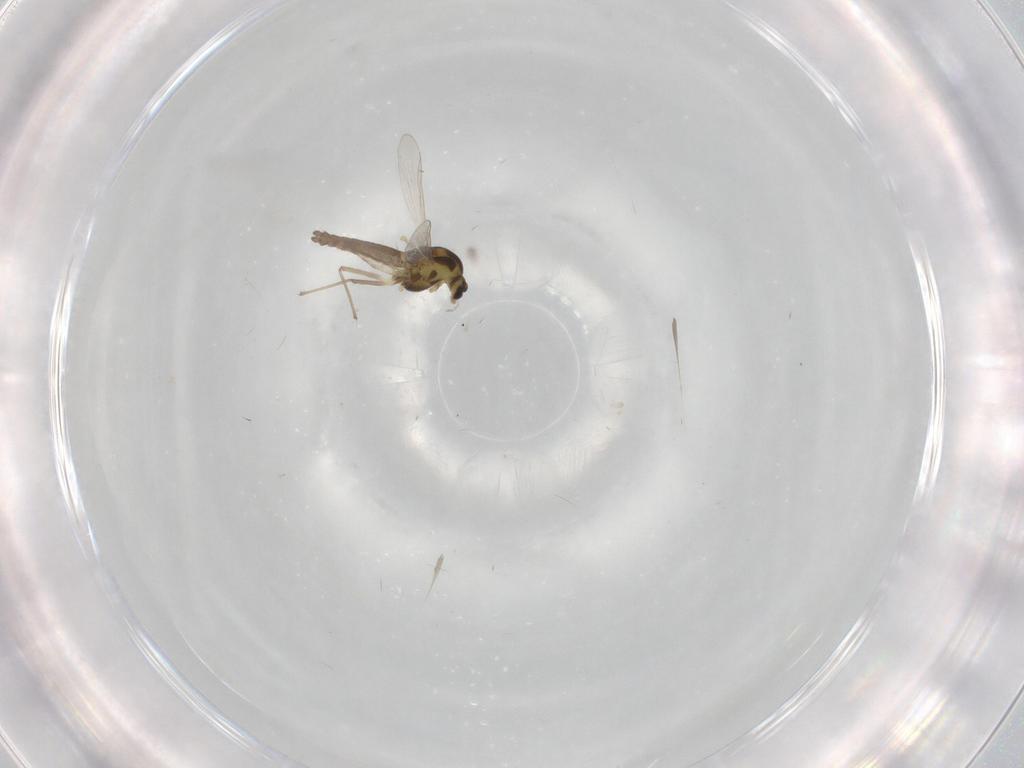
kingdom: Animalia
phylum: Arthropoda
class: Insecta
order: Diptera
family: Chironomidae
